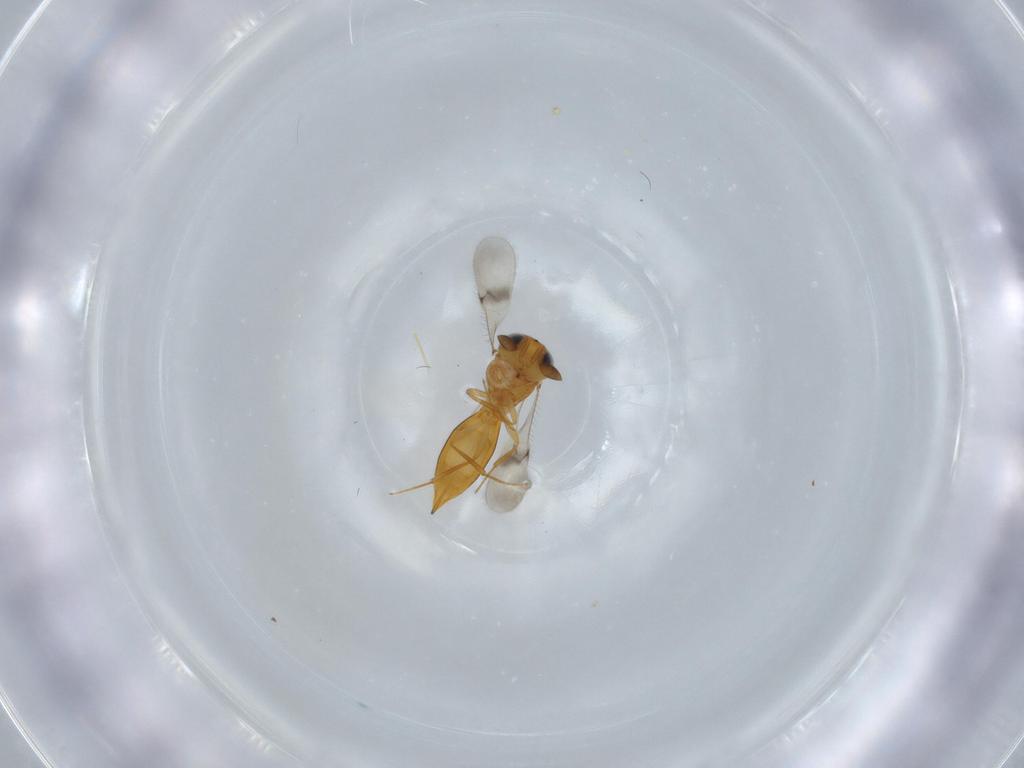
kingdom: Animalia
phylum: Arthropoda
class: Insecta
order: Hymenoptera
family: Scelionidae
